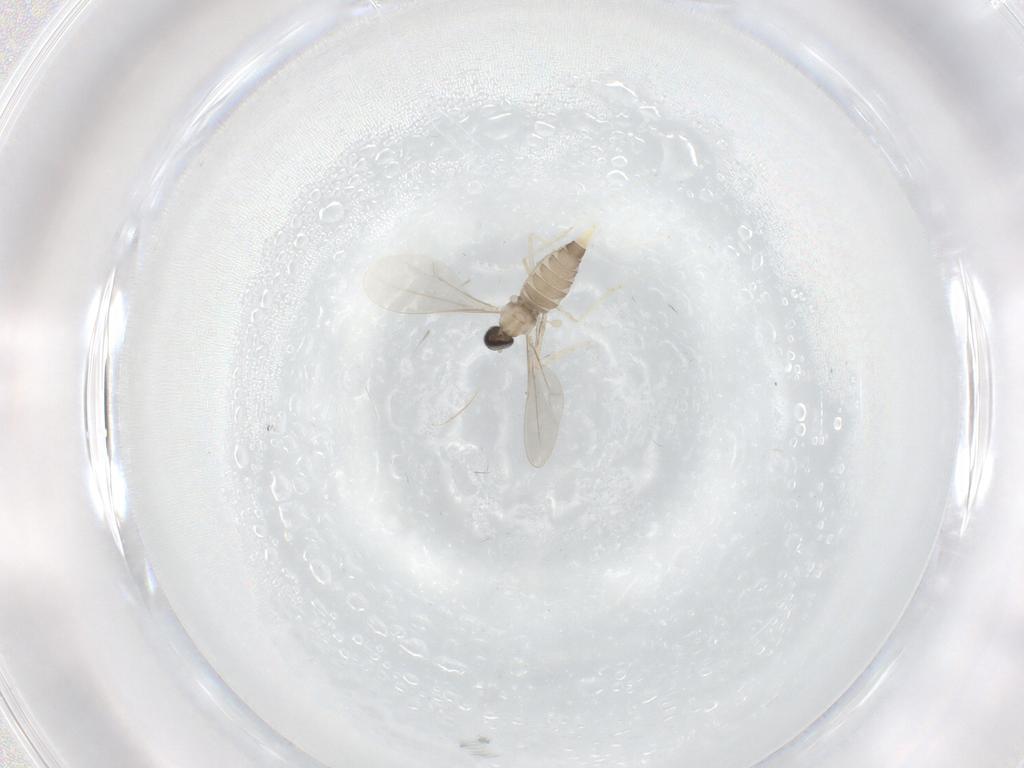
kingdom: Animalia
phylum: Arthropoda
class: Insecta
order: Diptera
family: Cecidomyiidae
